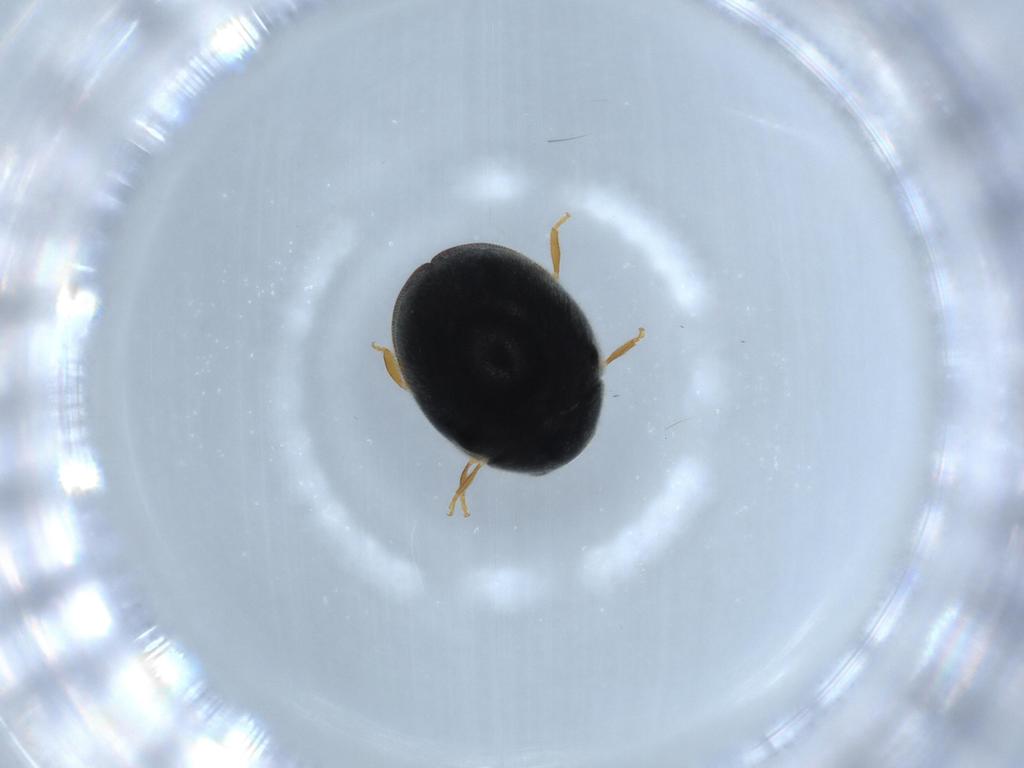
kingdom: Animalia
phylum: Arthropoda
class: Insecta
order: Coleoptera
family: Coccinellidae
